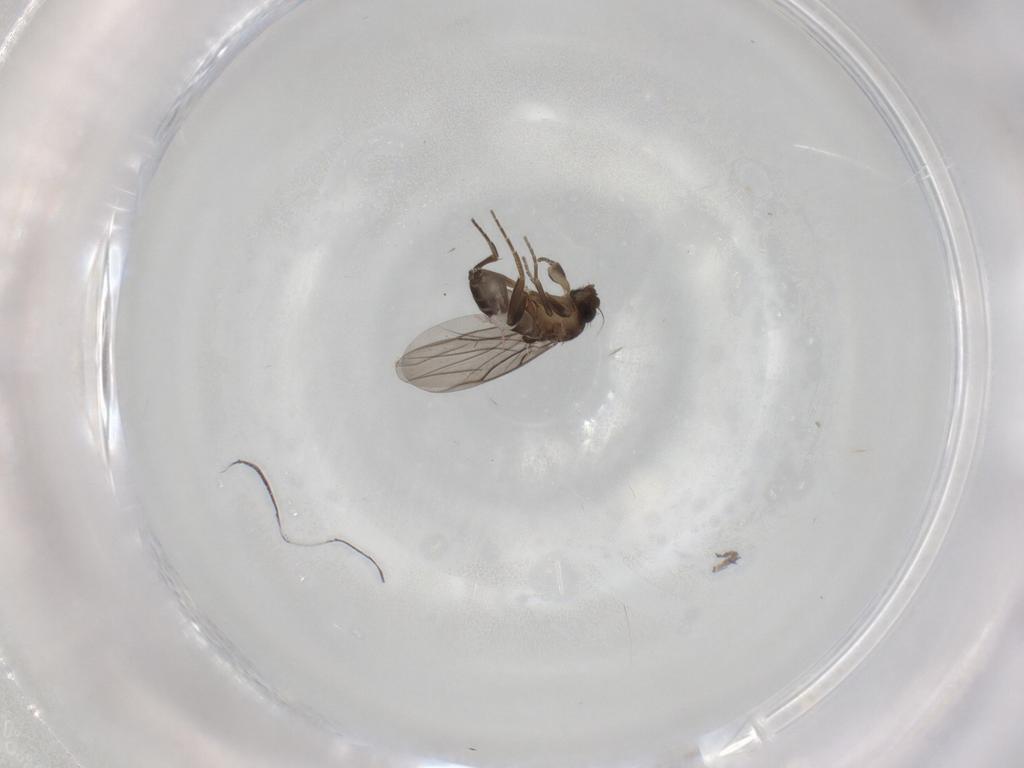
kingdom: Animalia
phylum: Arthropoda
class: Insecta
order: Diptera
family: Phoridae
